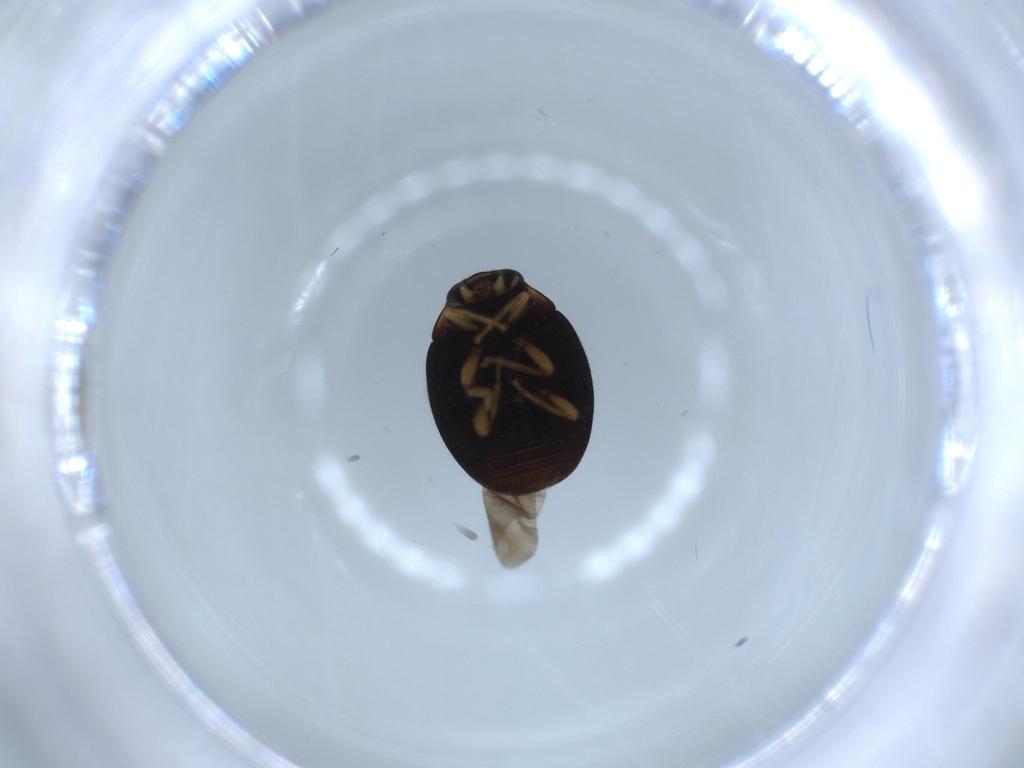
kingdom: Animalia
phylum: Arthropoda
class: Insecta
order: Coleoptera
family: Coccinellidae
